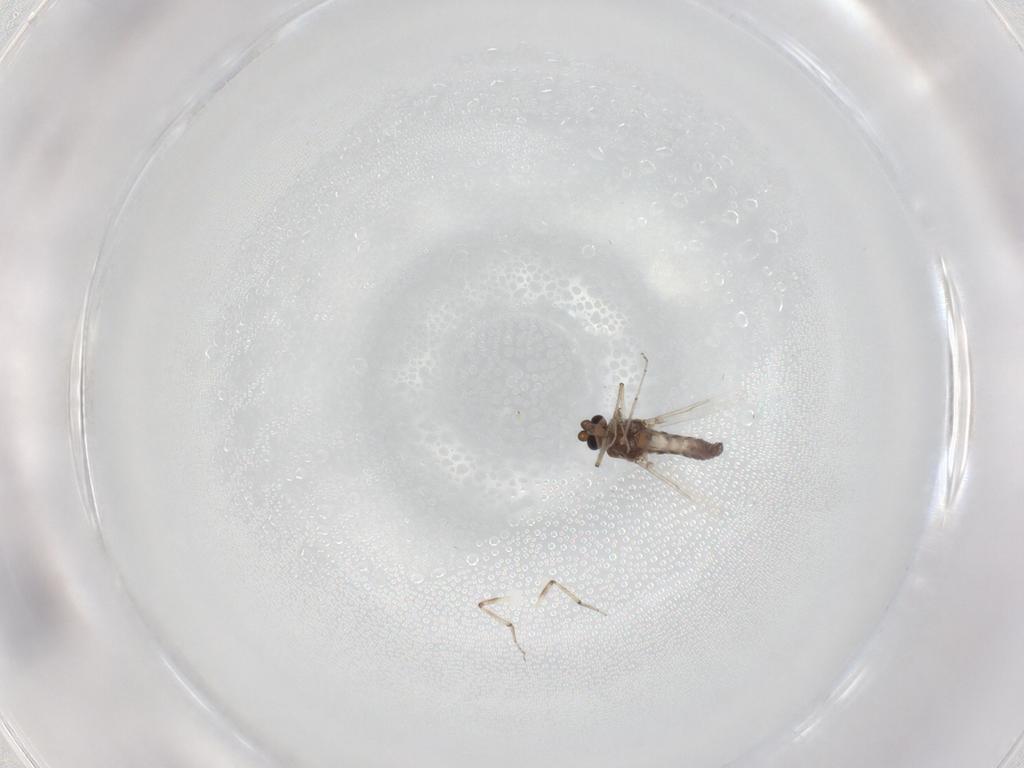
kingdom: Animalia
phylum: Arthropoda
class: Insecta
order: Diptera
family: Ceratopogonidae
